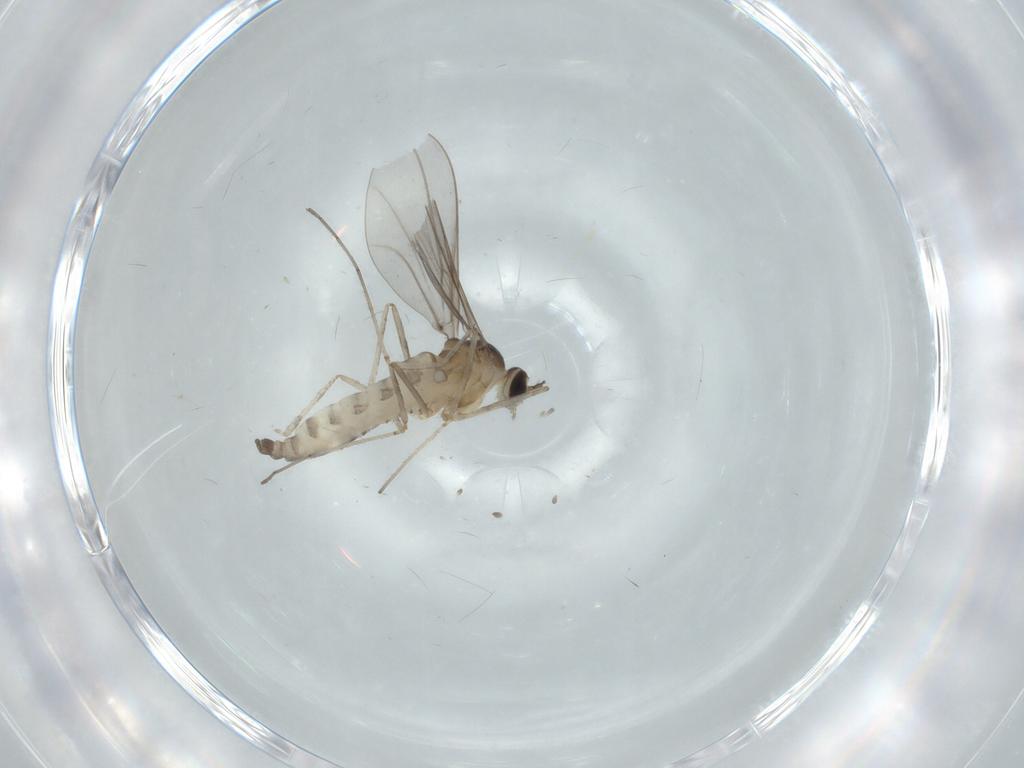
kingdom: Animalia
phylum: Arthropoda
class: Insecta
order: Diptera
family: Cecidomyiidae
